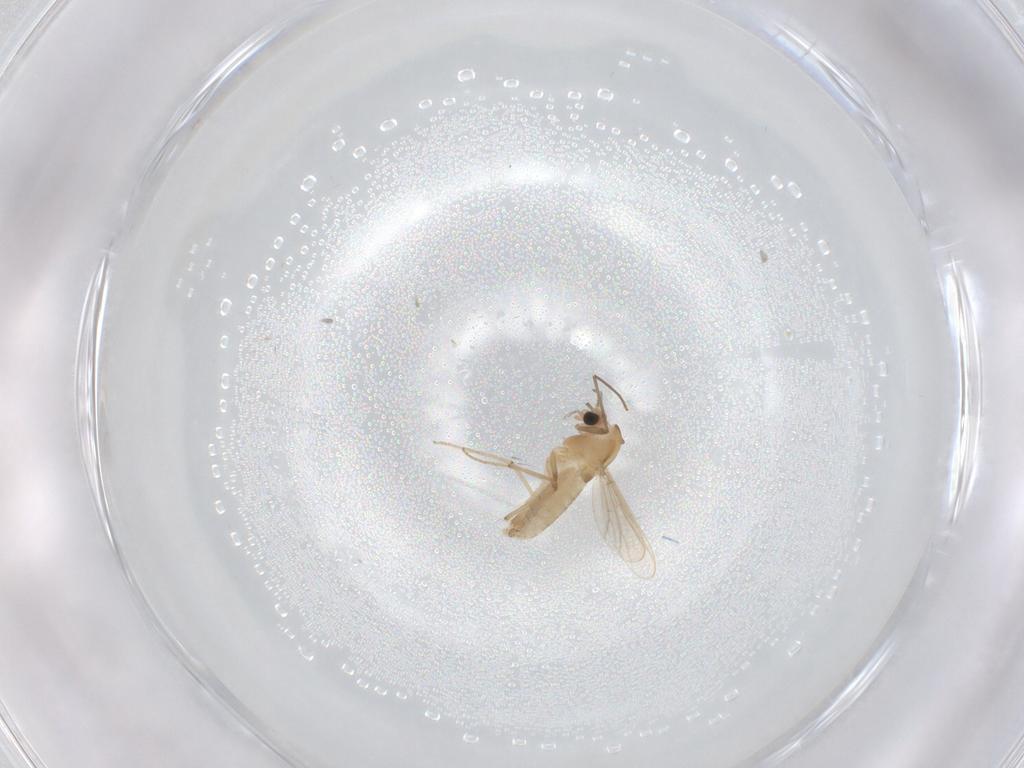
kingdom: Animalia
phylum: Arthropoda
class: Insecta
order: Diptera
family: Chironomidae
